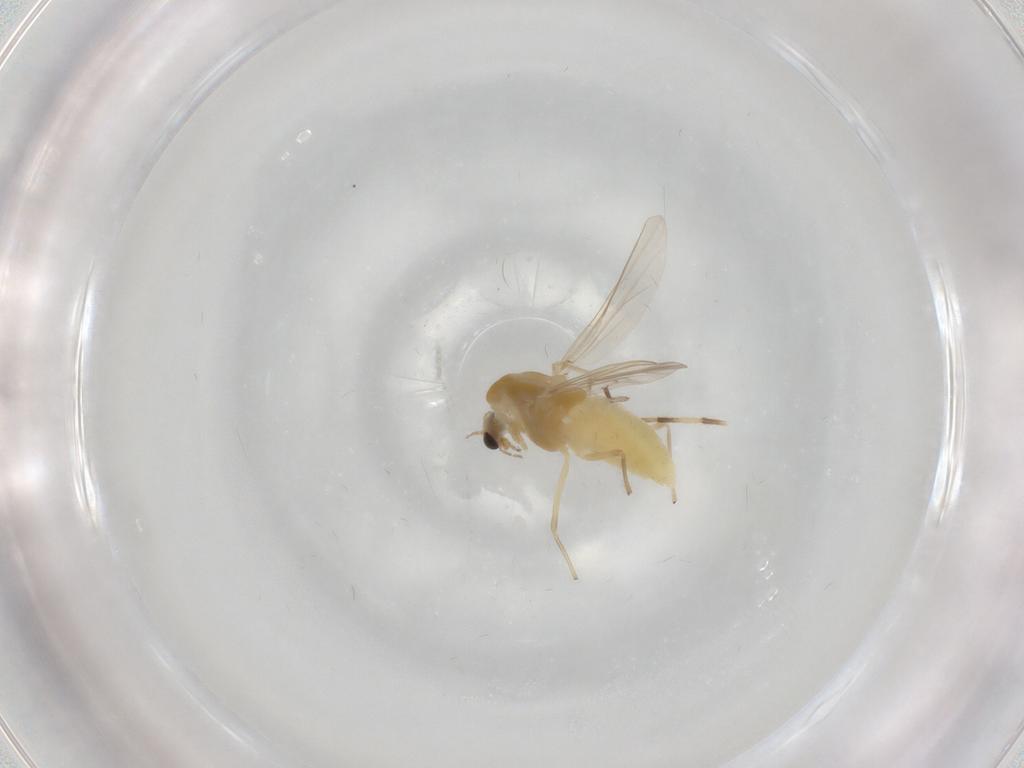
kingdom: Animalia
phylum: Arthropoda
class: Insecta
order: Diptera
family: Chironomidae
